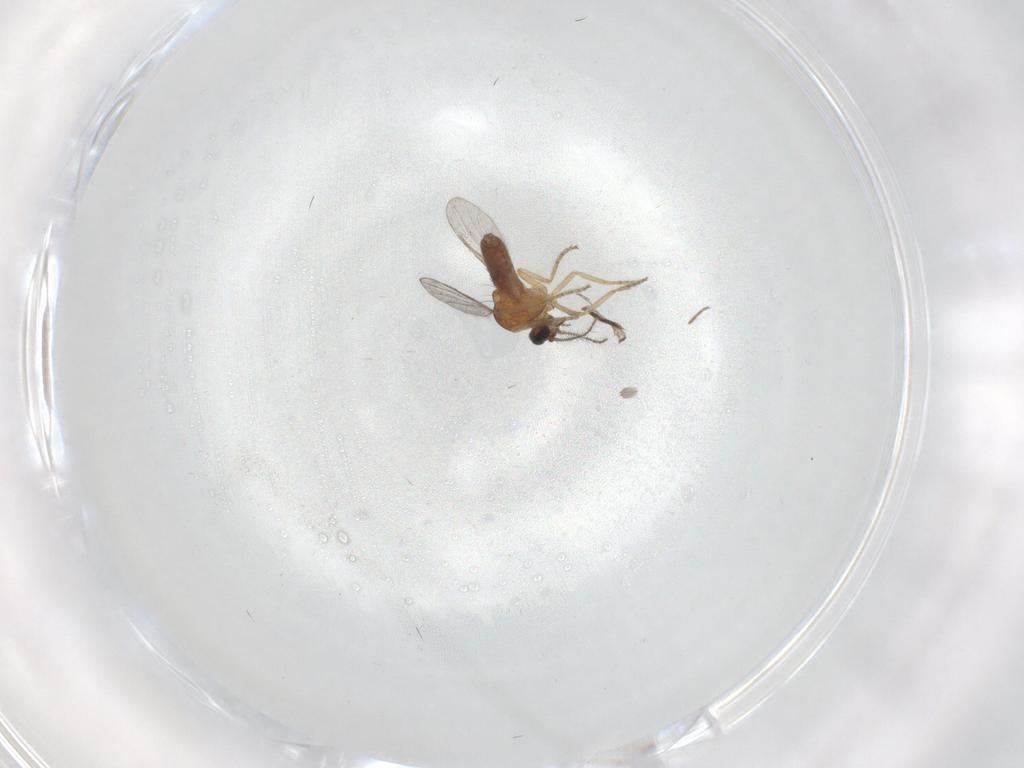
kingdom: Animalia
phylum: Arthropoda
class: Insecta
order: Diptera
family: Ceratopogonidae
